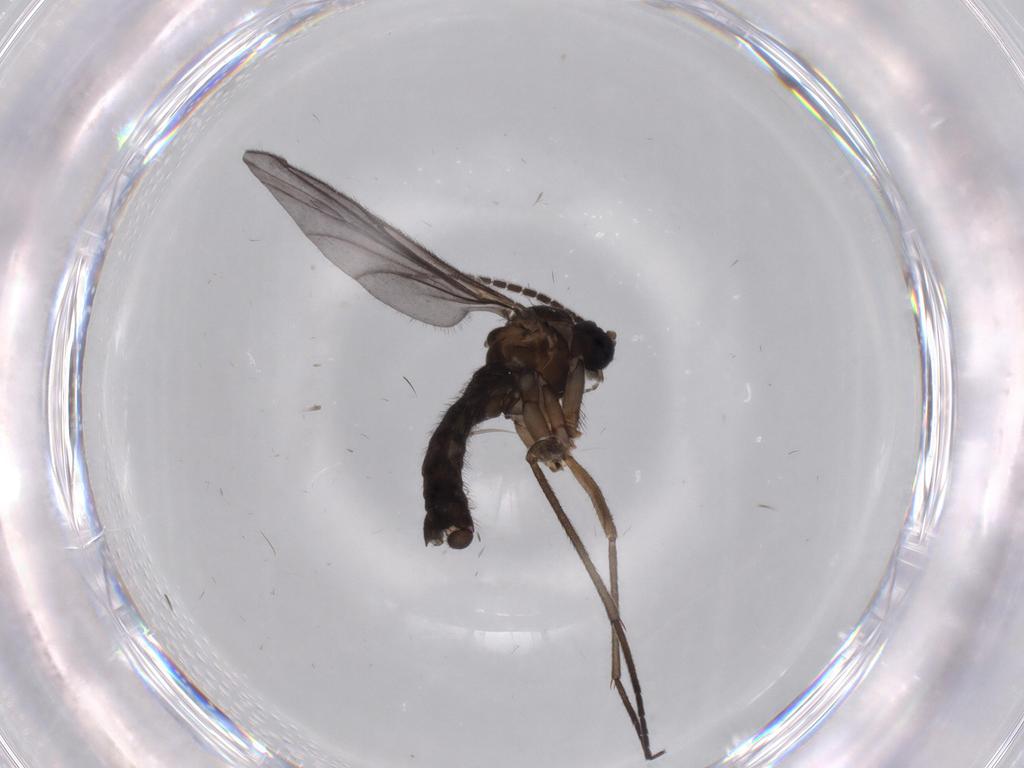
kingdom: Animalia
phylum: Arthropoda
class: Insecta
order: Diptera
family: Sciaridae
